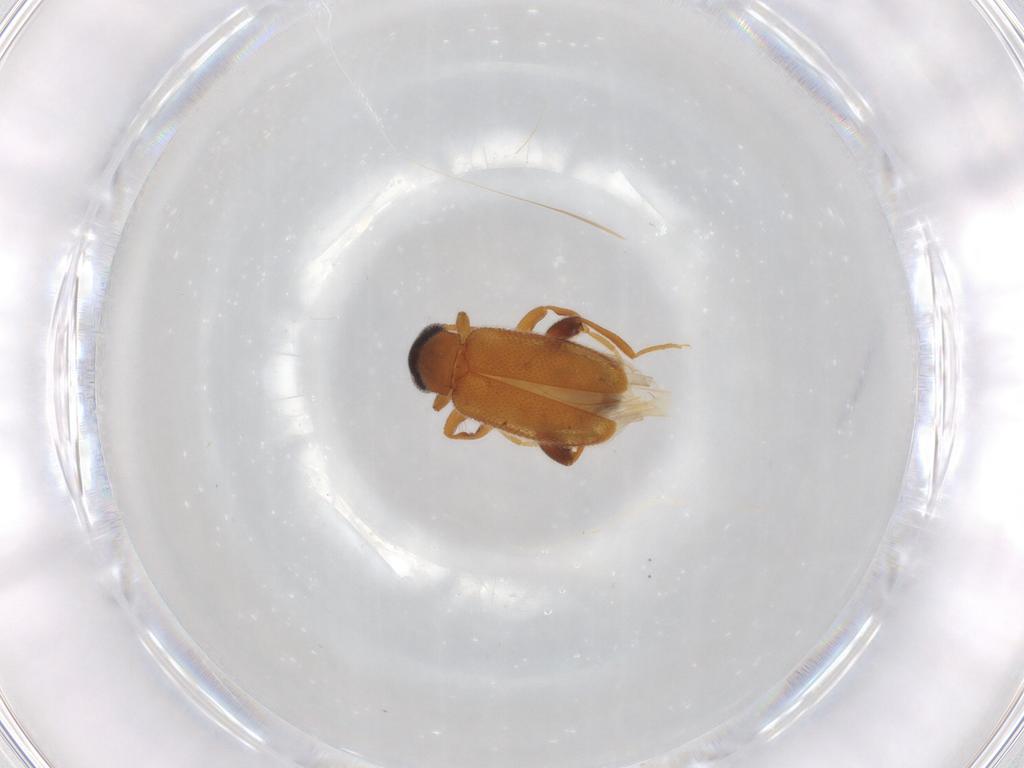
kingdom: Animalia
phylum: Arthropoda
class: Insecta
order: Coleoptera
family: Aderidae
